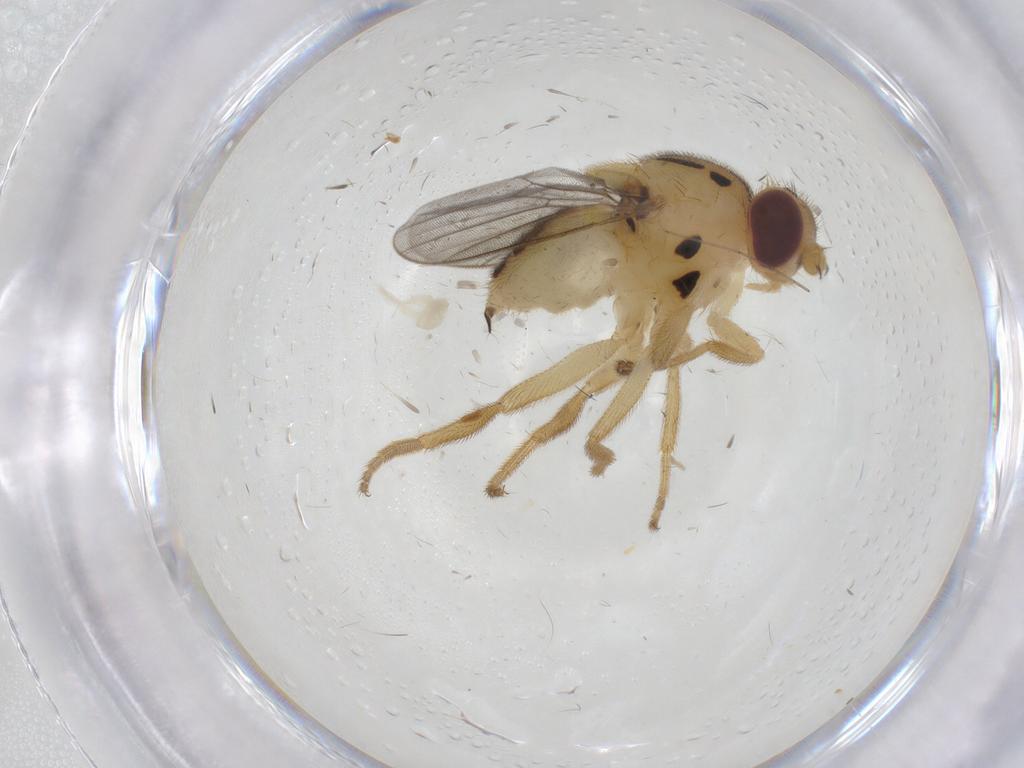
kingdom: Animalia
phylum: Arthropoda
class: Insecta
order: Diptera
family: Chloropidae
